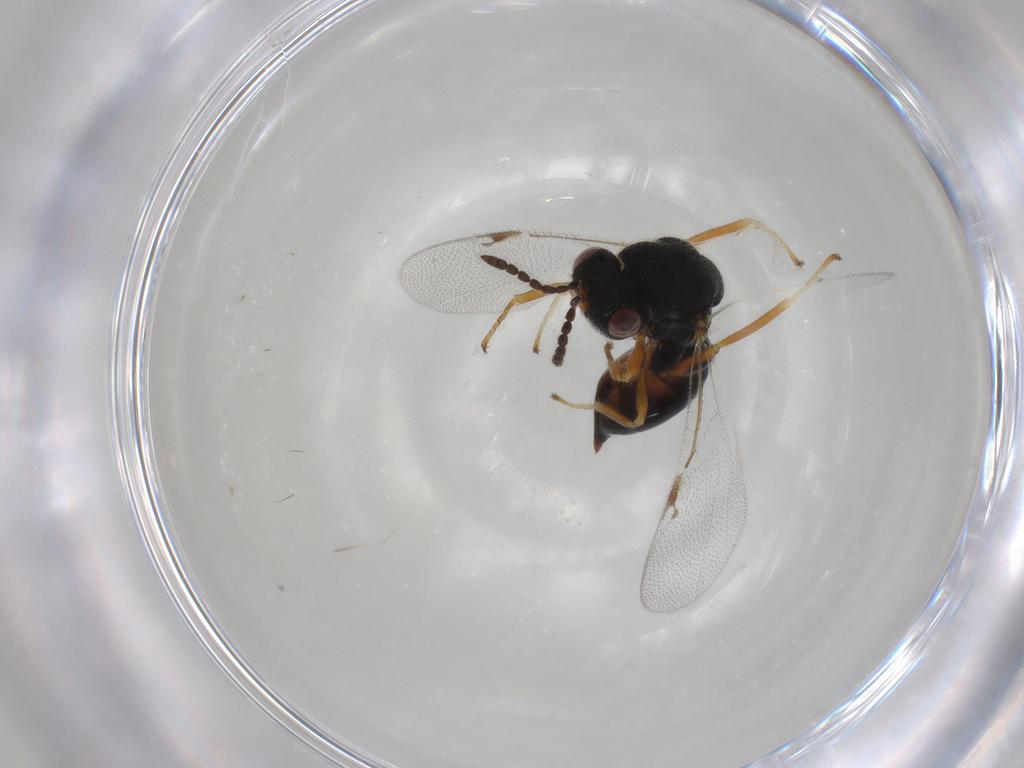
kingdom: Animalia
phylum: Arthropoda
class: Insecta
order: Hymenoptera
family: Eurytomidae
